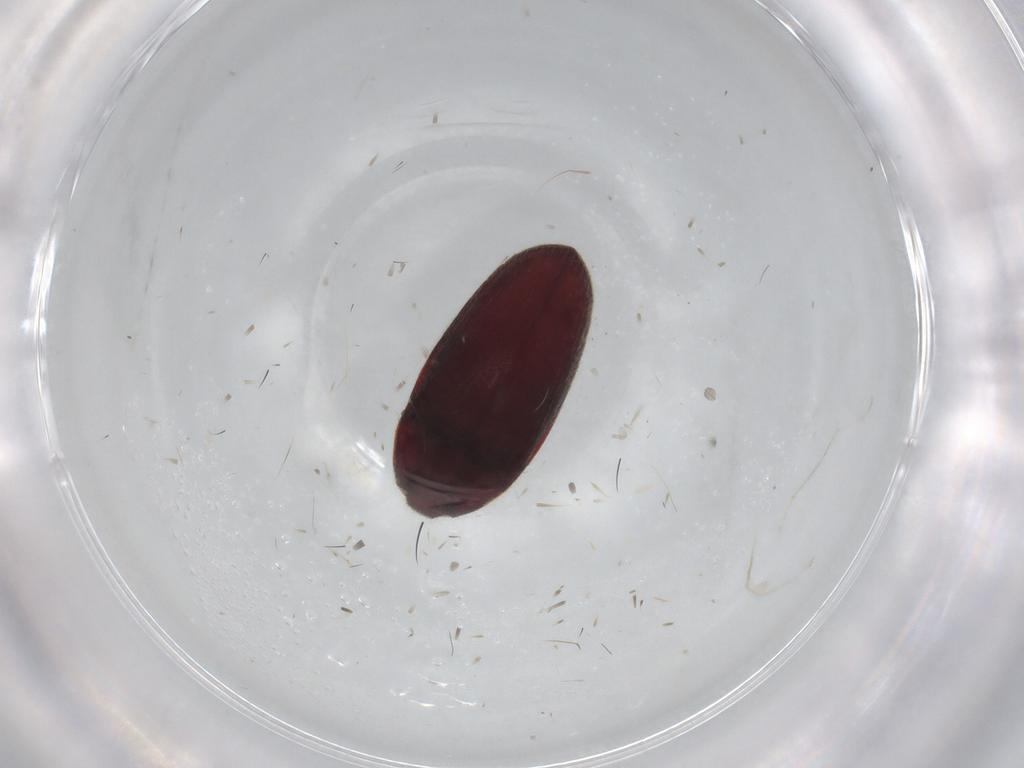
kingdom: Animalia
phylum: Arthropoda
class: Insecta
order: Coleoptera
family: Throscidae
